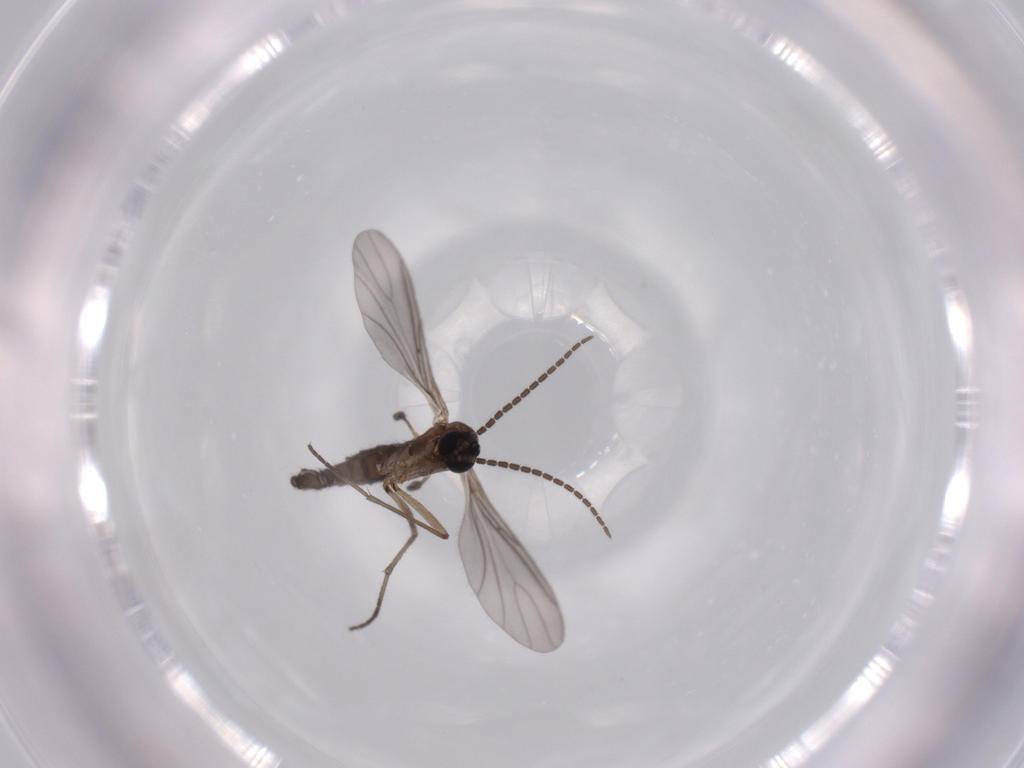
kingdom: Animalia
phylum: Arthropoda
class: Insecta
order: Diptera
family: Sciaridae
